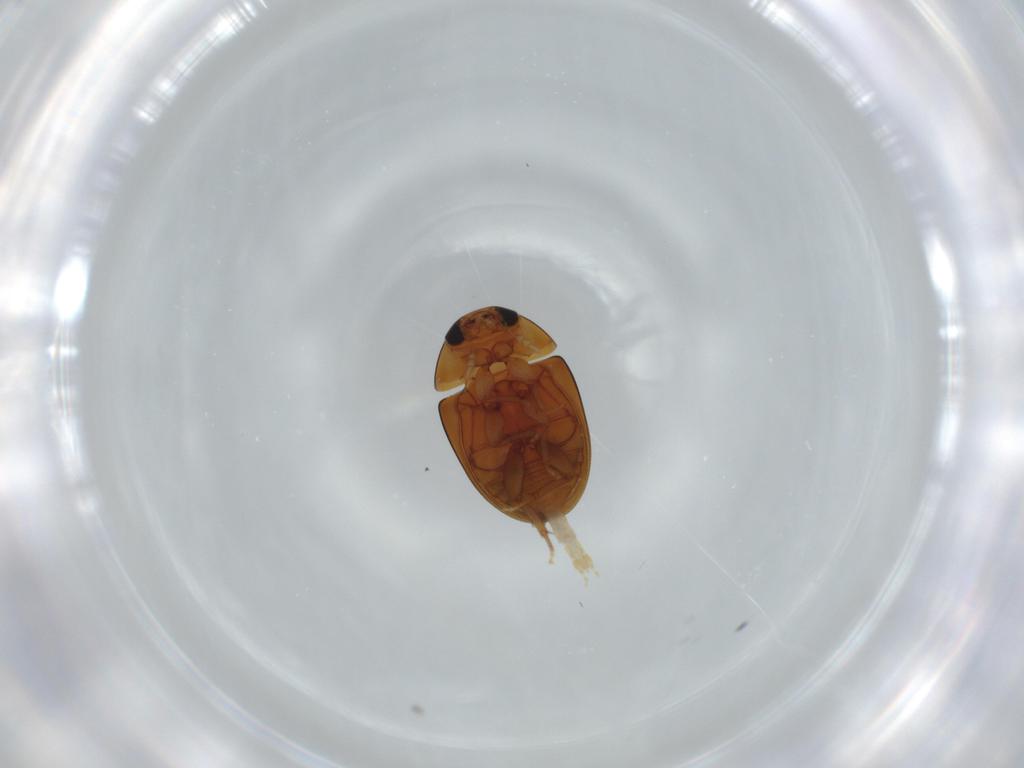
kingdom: Animalia
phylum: Arthropoda
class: Insecta
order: Coleoptera
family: Phalacridae
